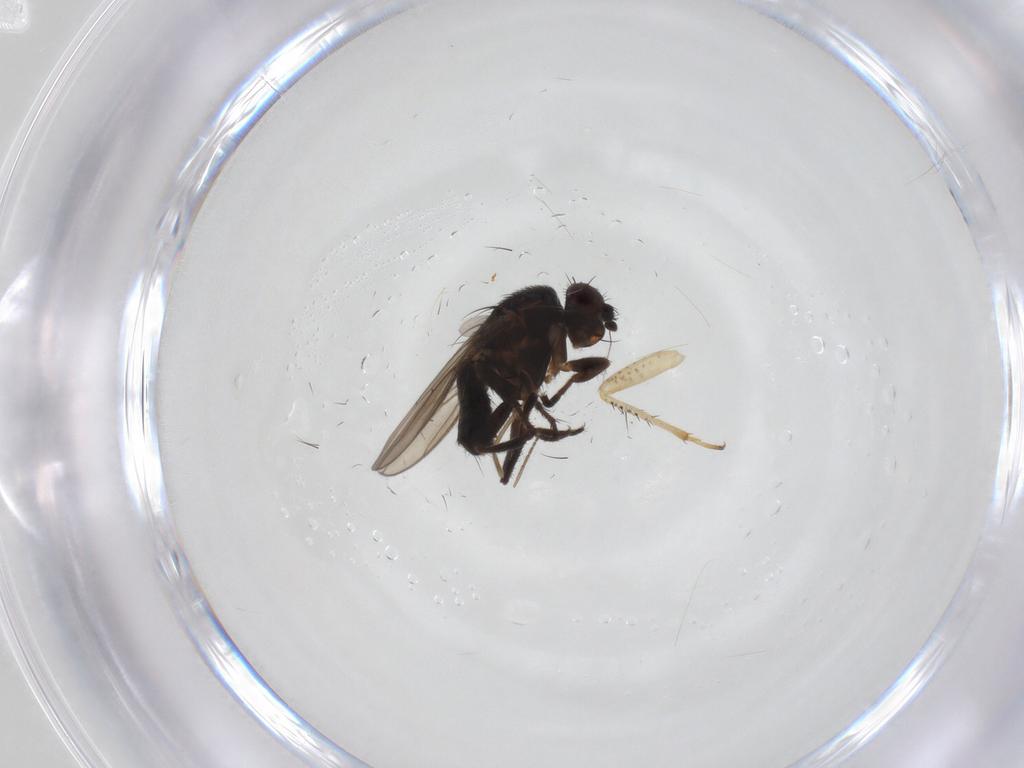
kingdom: Animalia
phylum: Arthropoda
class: Insecta
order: Diptera
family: Sphaeroceridae
